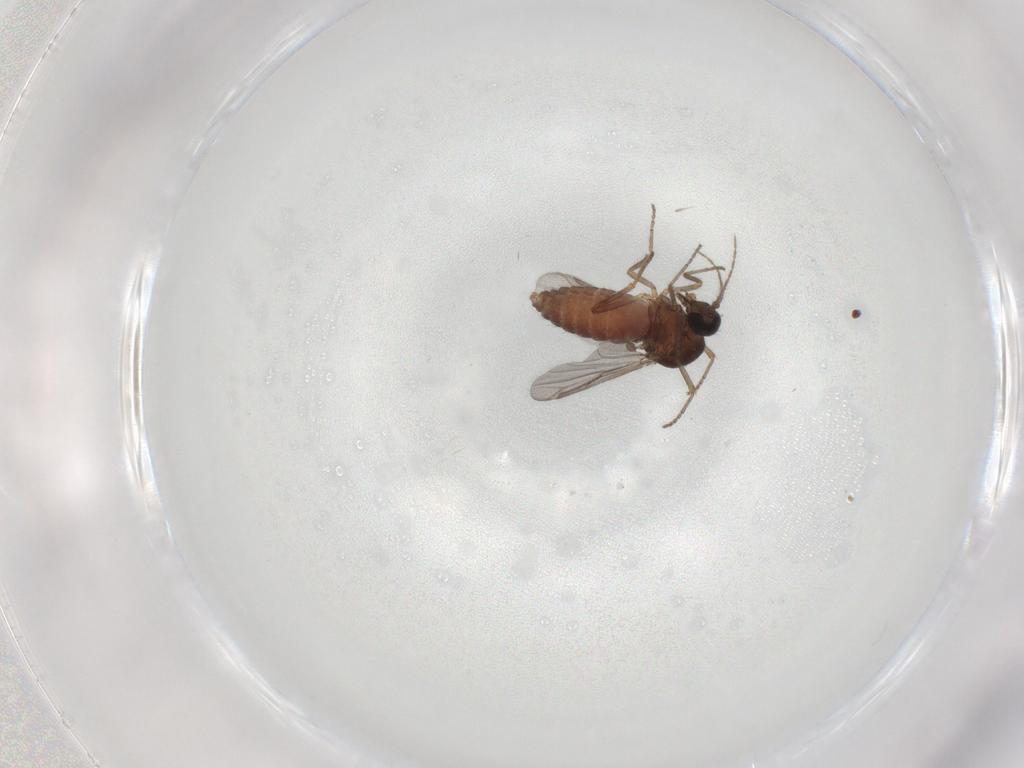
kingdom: Animalia
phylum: Arthropoda
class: Insecta
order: Diptera
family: Ceratopogonidae
